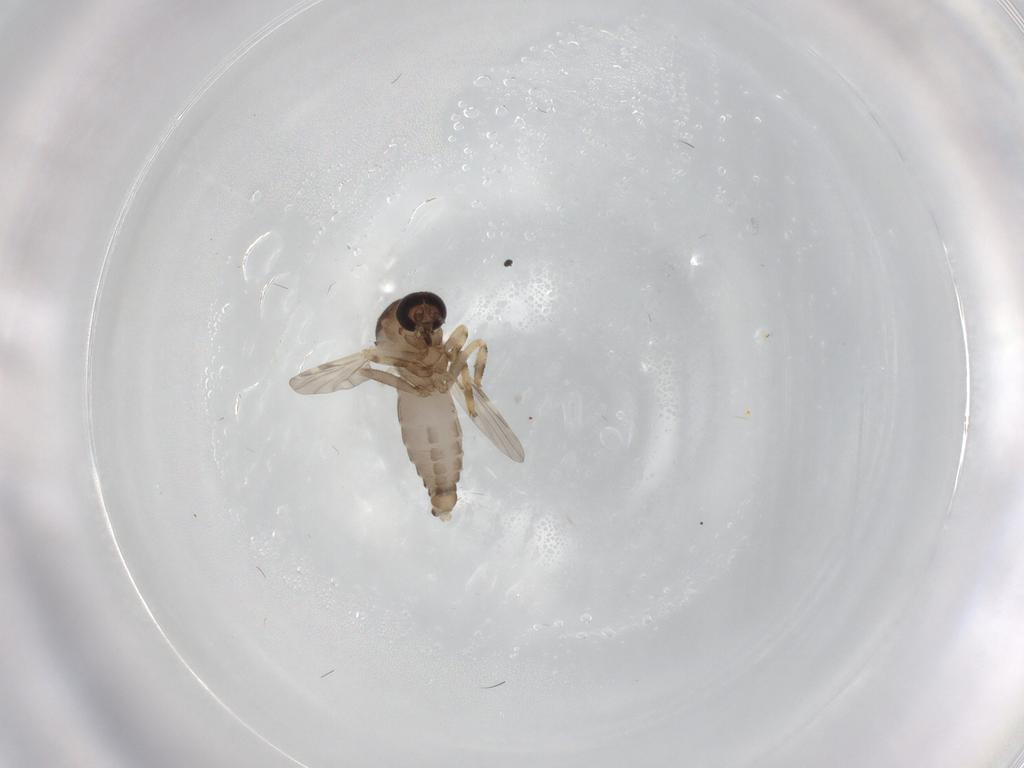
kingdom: Animalia
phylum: Arthropoda
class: Insecta
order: Diptera
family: Ceratopogonidae
